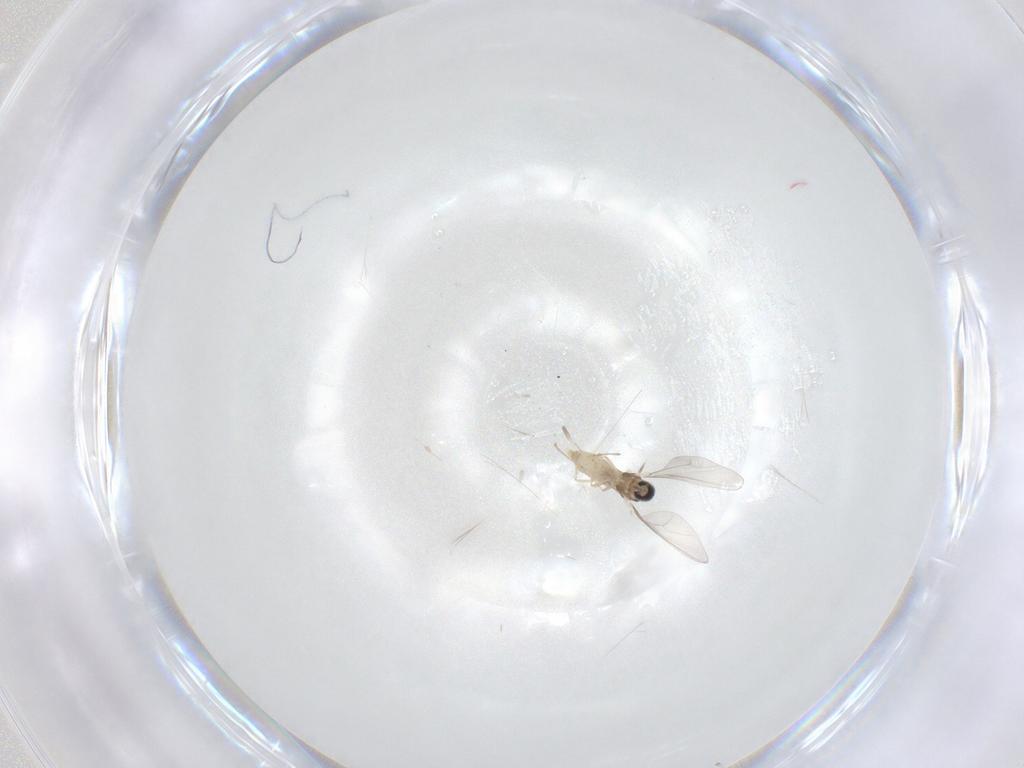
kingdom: Animalia
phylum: Arthropoda
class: Insecta
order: Diptera
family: Cecidomyiidae
